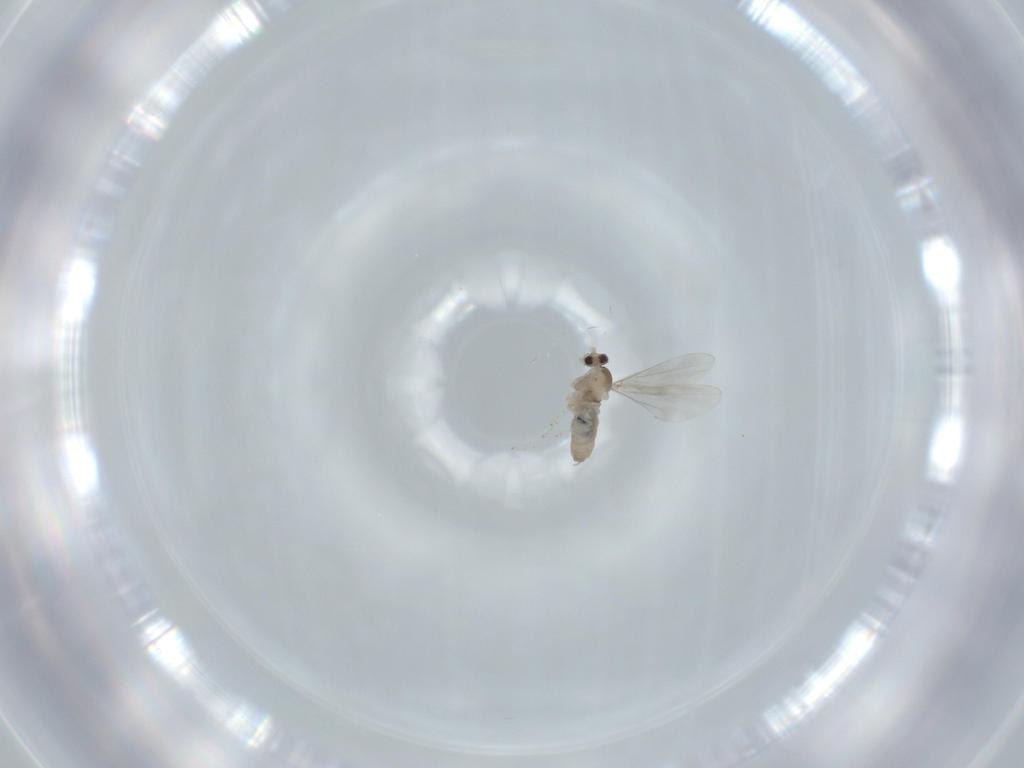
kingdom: Animalia
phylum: Arthropoda
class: Insecta
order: Diptera
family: Cecidomyiidae
